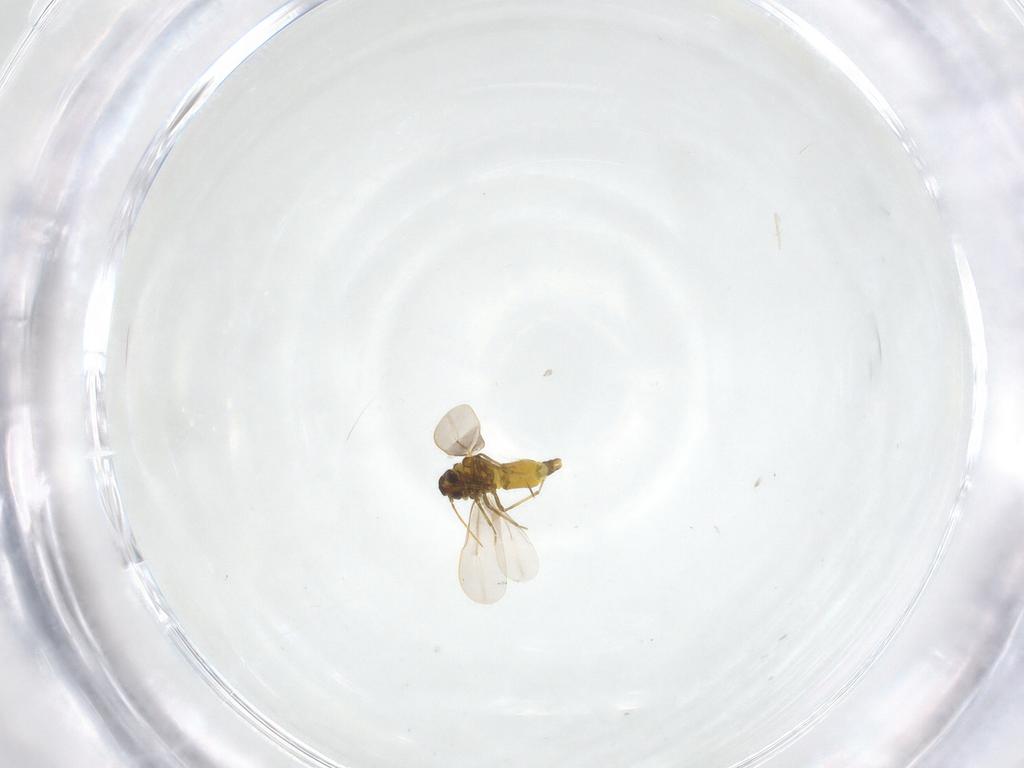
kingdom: Animalia
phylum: Arthropoda
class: Insecta
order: Hemiptera
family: Aleyrodidae
